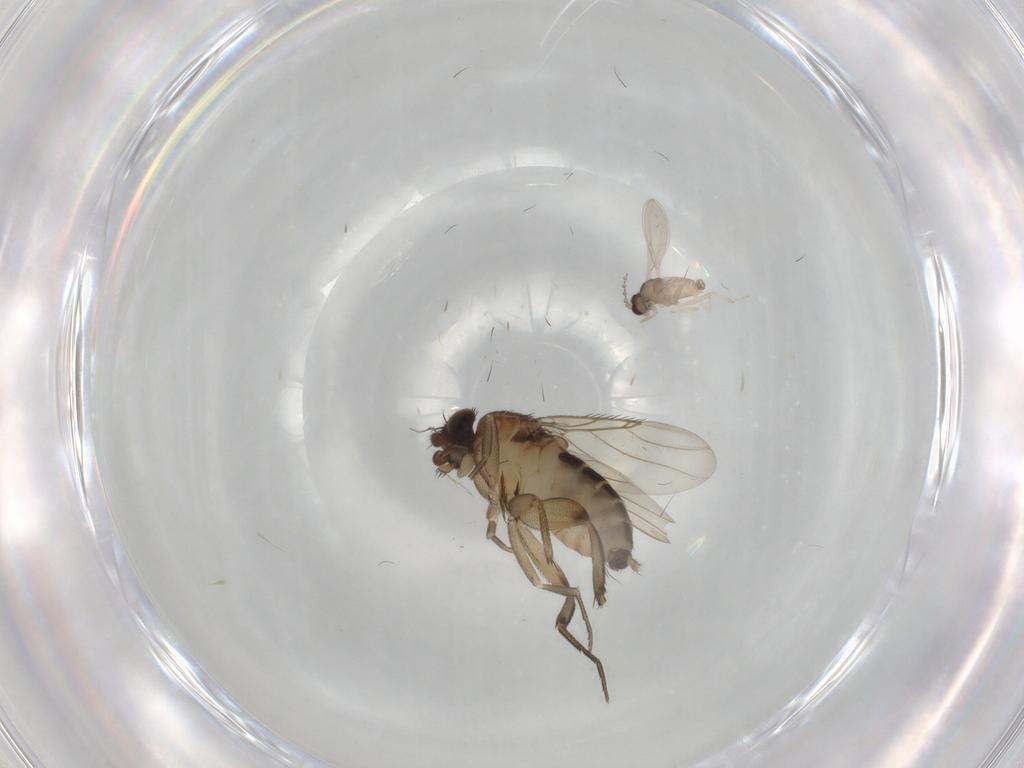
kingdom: Animalia
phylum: Arthropoda
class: Insecta
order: Diptera
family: Cecidomyiidae
